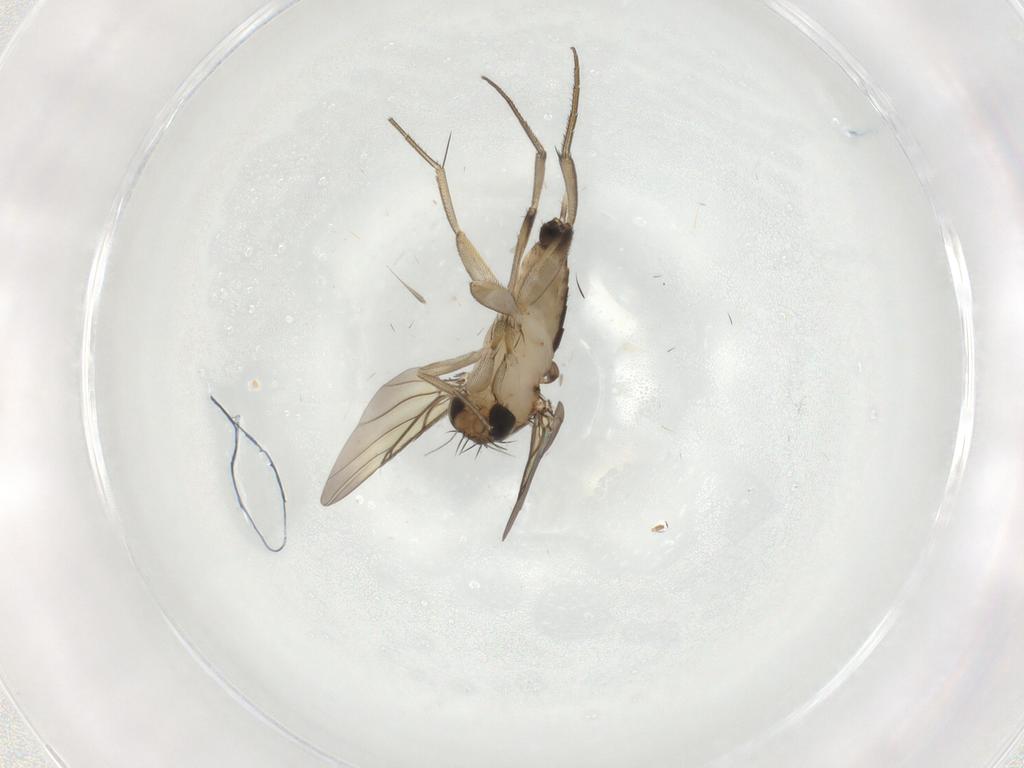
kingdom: Animalia
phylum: Arthropoda
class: Insecta
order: Diptera
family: Phoridae
